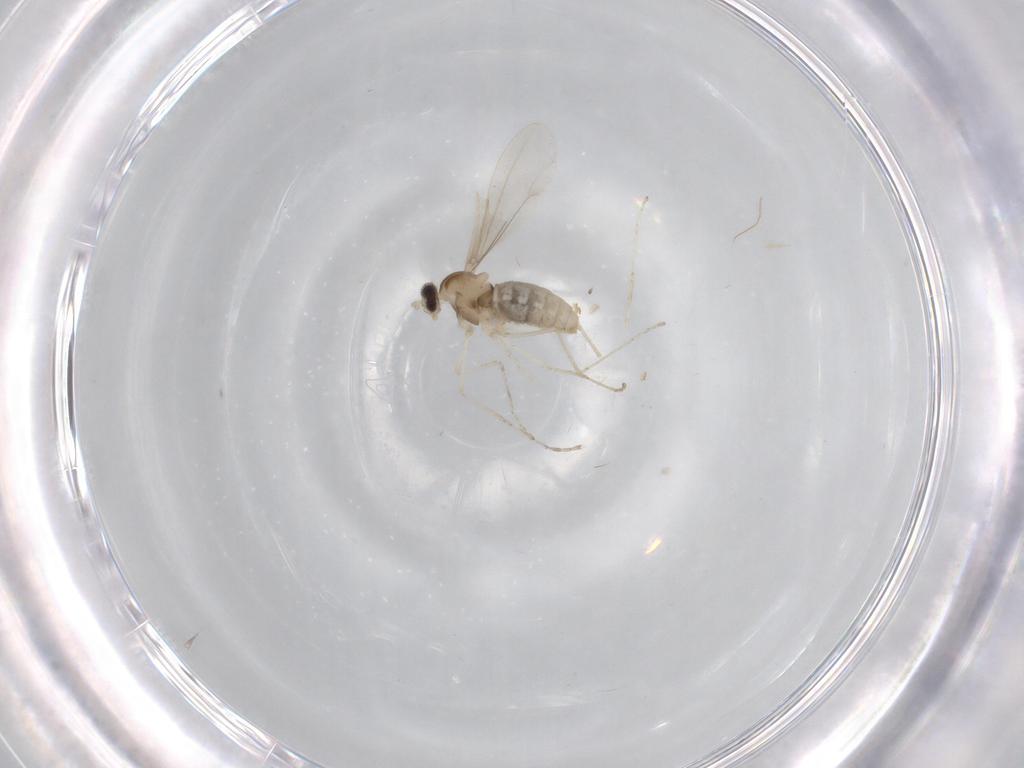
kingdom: Animalia
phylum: Arthropoda
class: Insecta
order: Diptera
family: Cecidomyiidae
